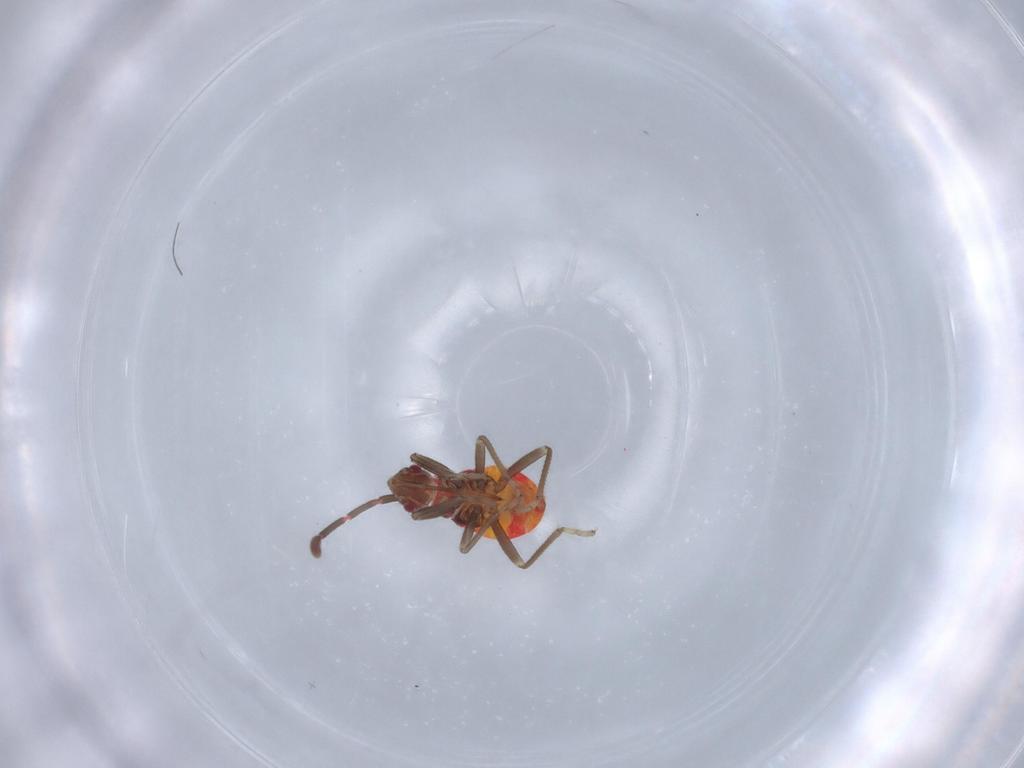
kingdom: Animalia
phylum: Arthropoda
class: Insecta
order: Hemiptera
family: Rhyparochromidae
